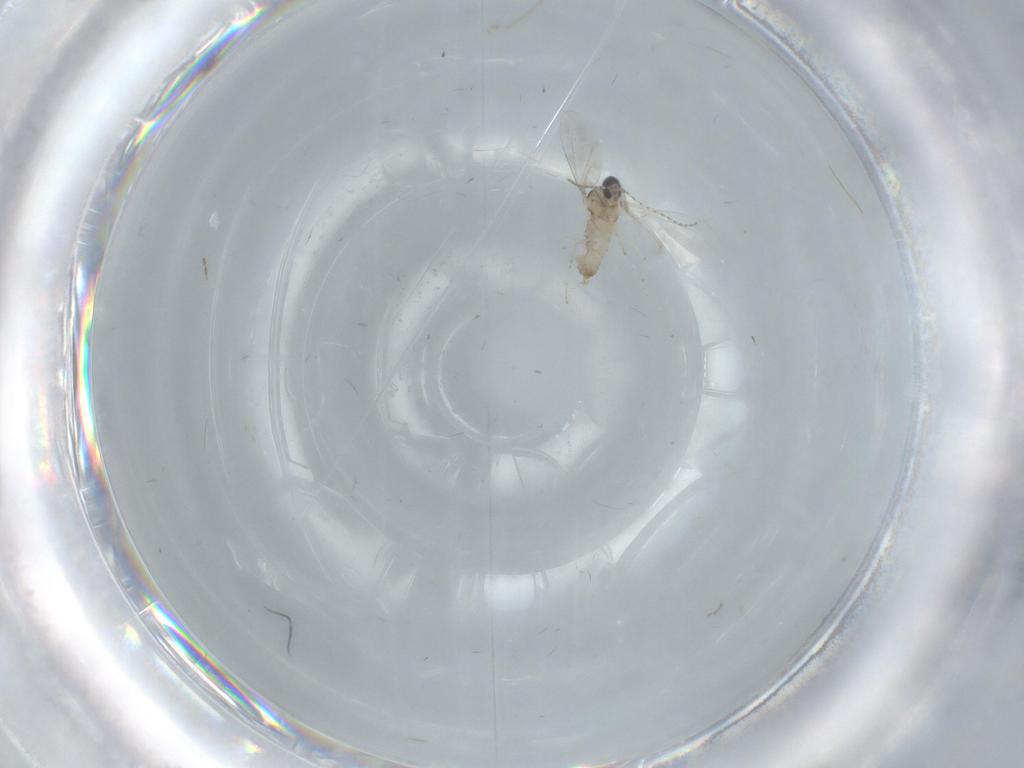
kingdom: Animalia
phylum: Arthropoda
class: Insecta
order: Diptera
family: Cecidomyiidae
